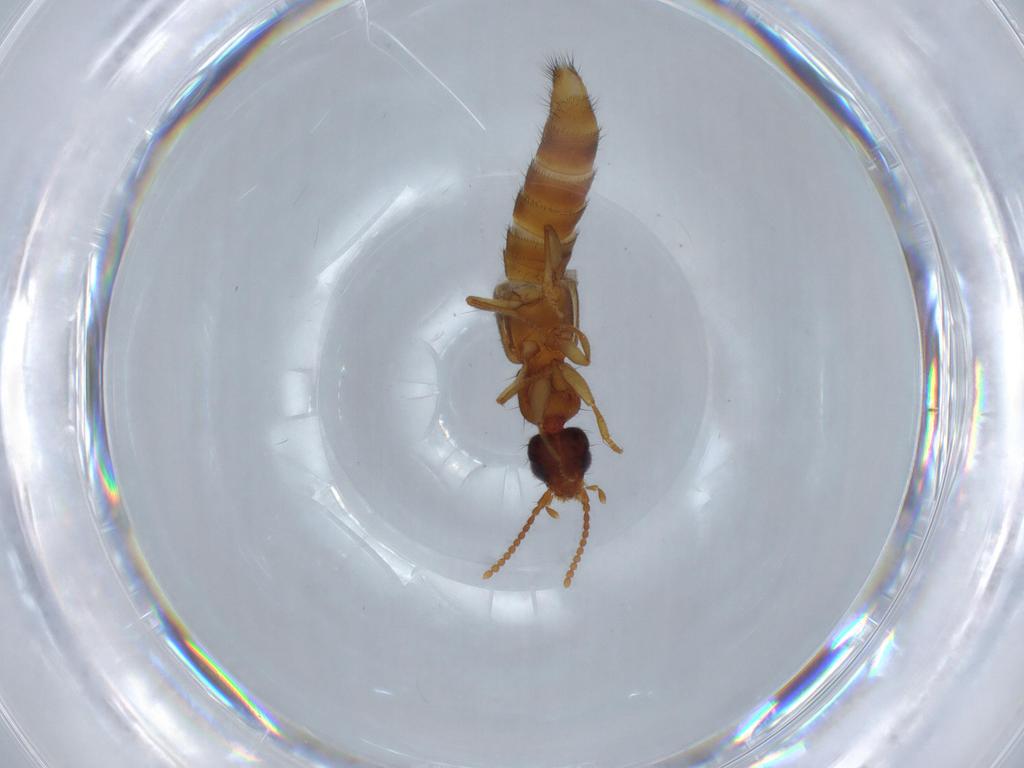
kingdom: Animalia
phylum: Arthropoda
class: Insecta
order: Coleoptera
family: Staphylinidae
